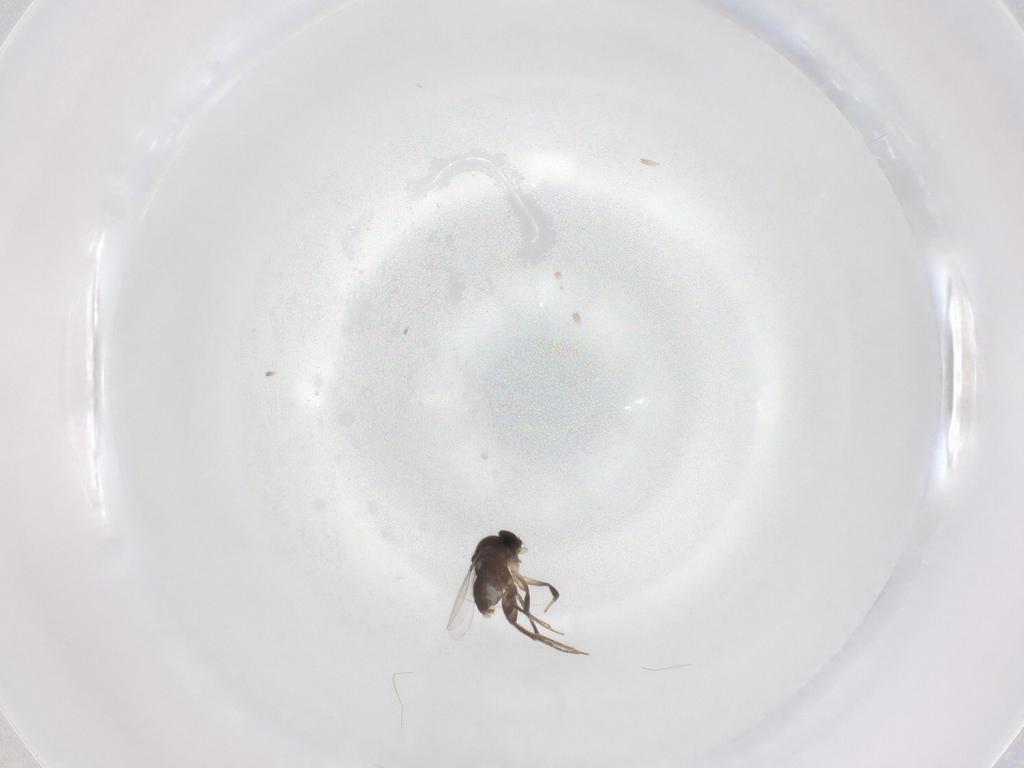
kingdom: Animalia
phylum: Arthropoda
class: Insecta
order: Diptera
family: Phoridae
